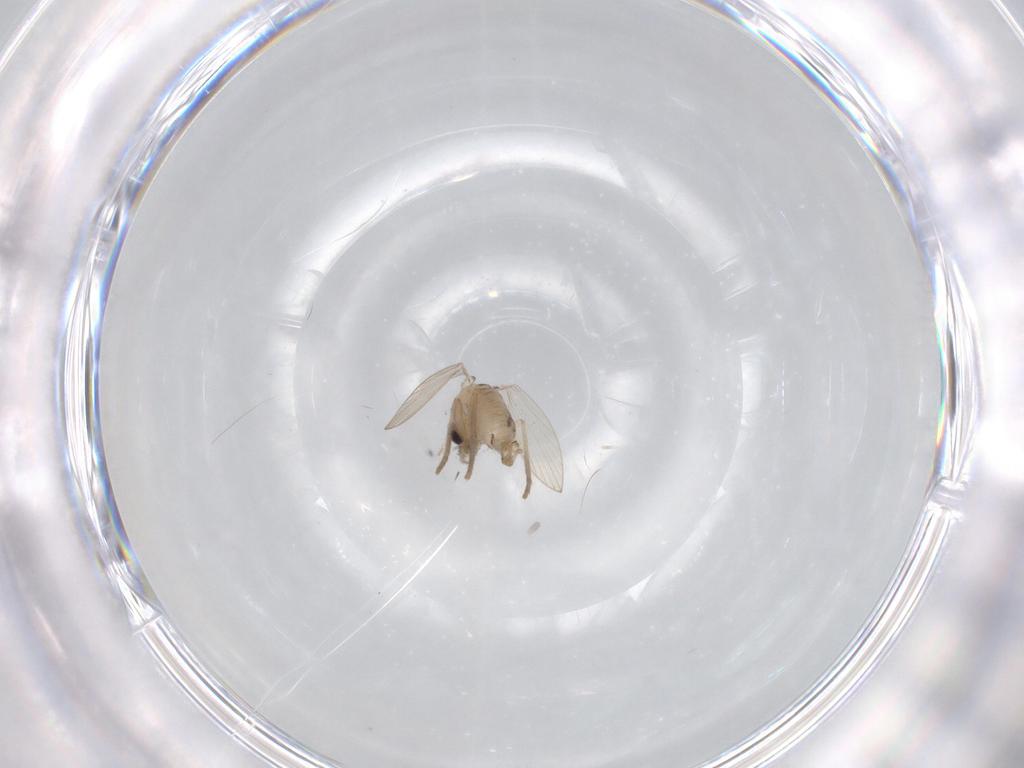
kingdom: Animalia
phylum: Arthropoda
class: Insecta
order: Diptera
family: Psychodidae
